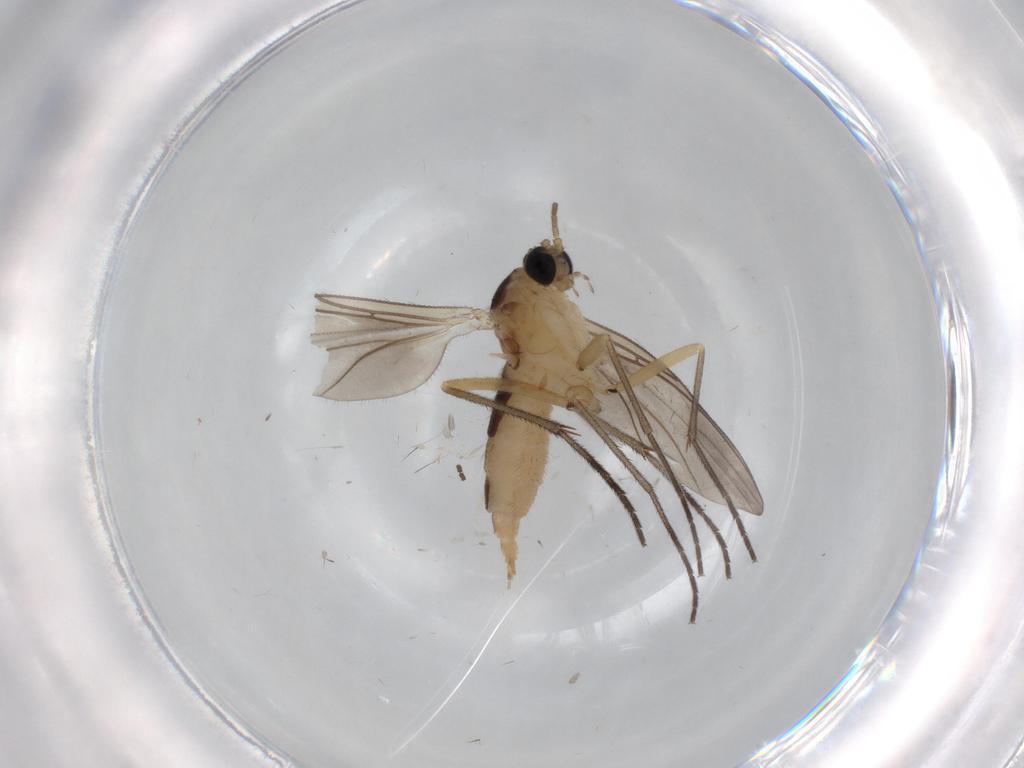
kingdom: Animalia
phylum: Arthropoda
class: Insecta
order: Diptera
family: Sciaridae
